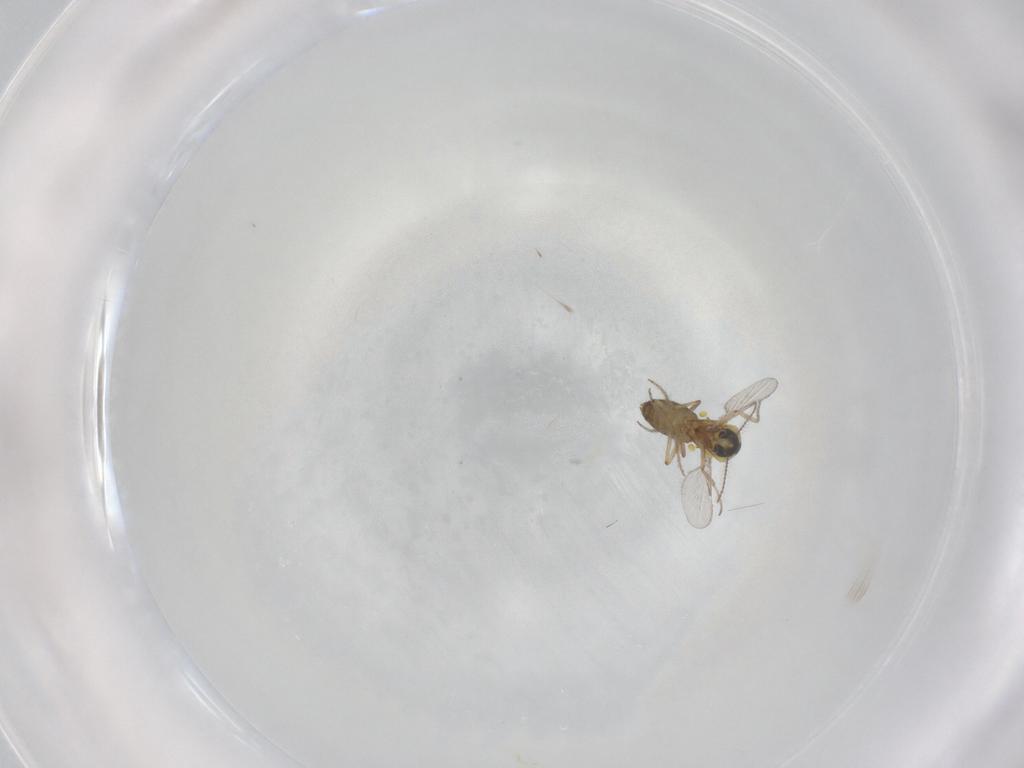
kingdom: Animalia
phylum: Arthropoda
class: Insecta
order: Diptera
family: Ceratopogonidae
